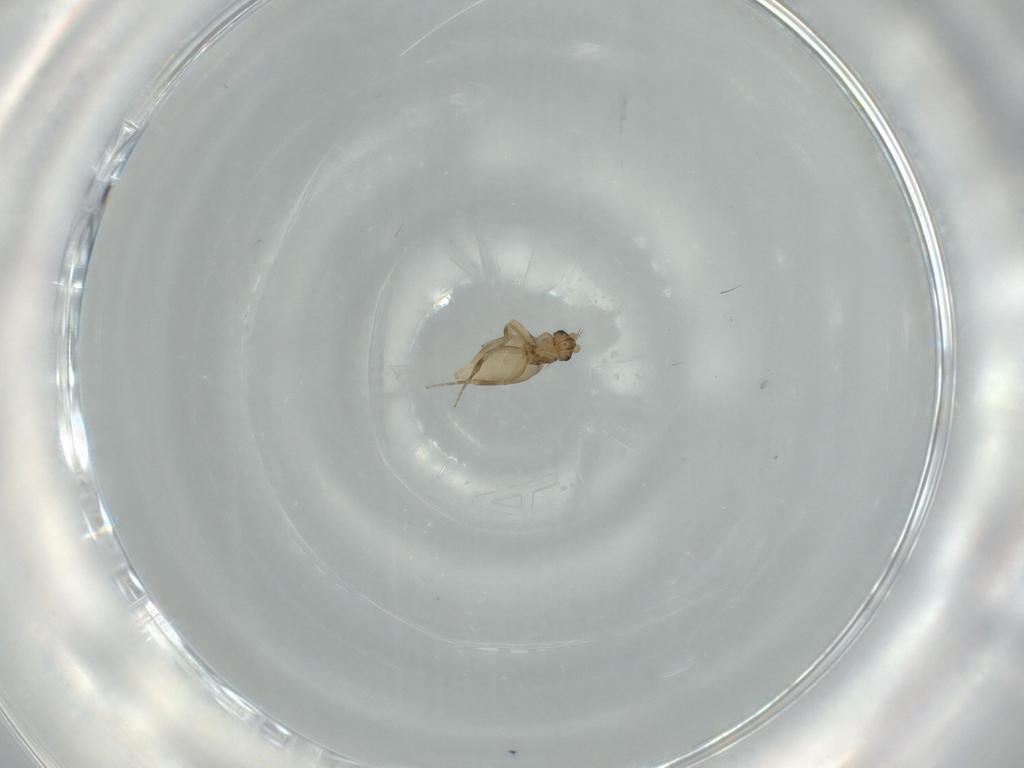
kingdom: Animalia
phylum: Arthropoda
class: Insecta
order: Diptera
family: Phoridae
